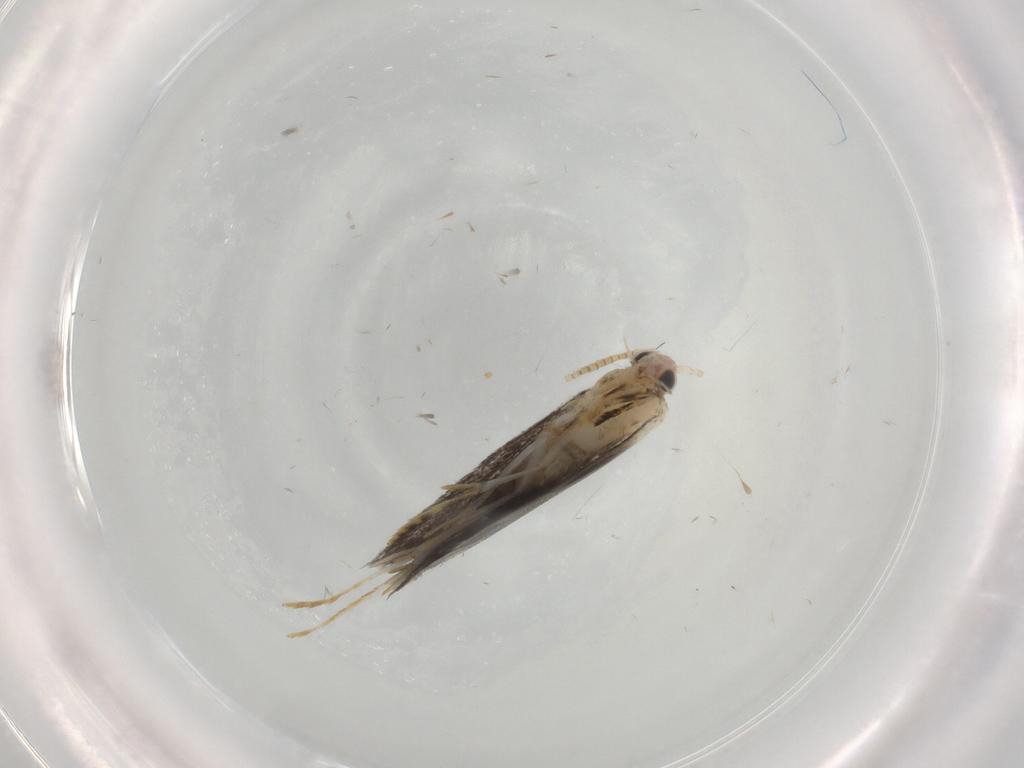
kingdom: Animalia
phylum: Arthropoda
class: Insecta
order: Lepidoptera
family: Tineidae
